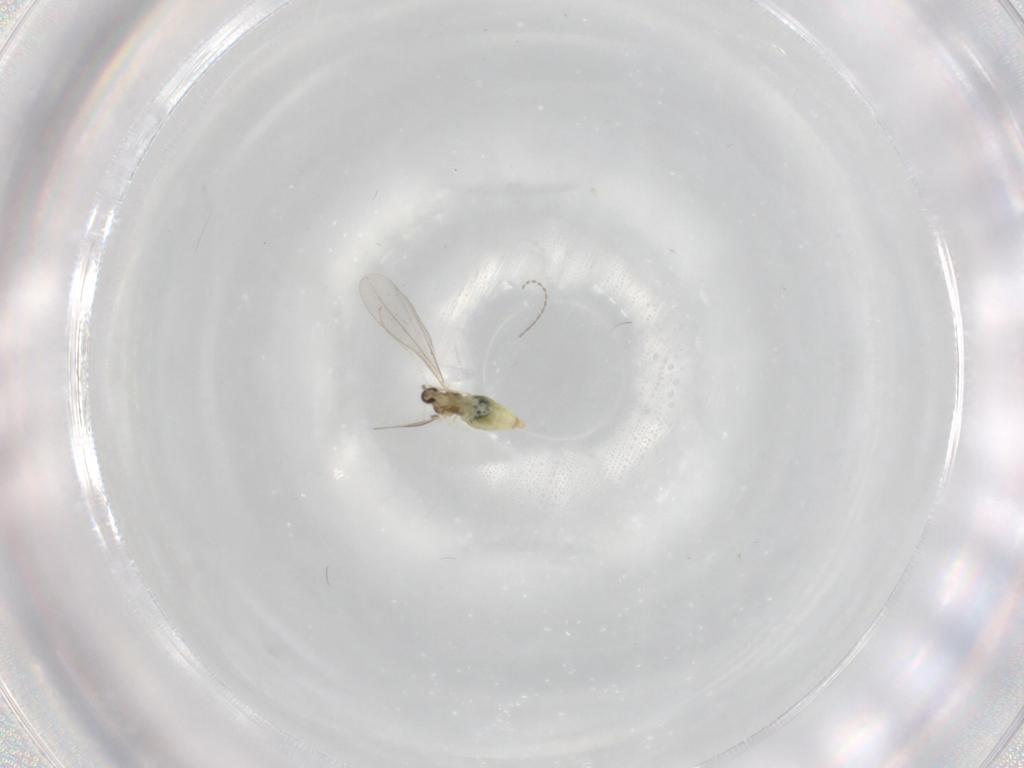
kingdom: Animalia
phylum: Arthropoda
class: Insecta
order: Diptera
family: Cecidomyiidae
